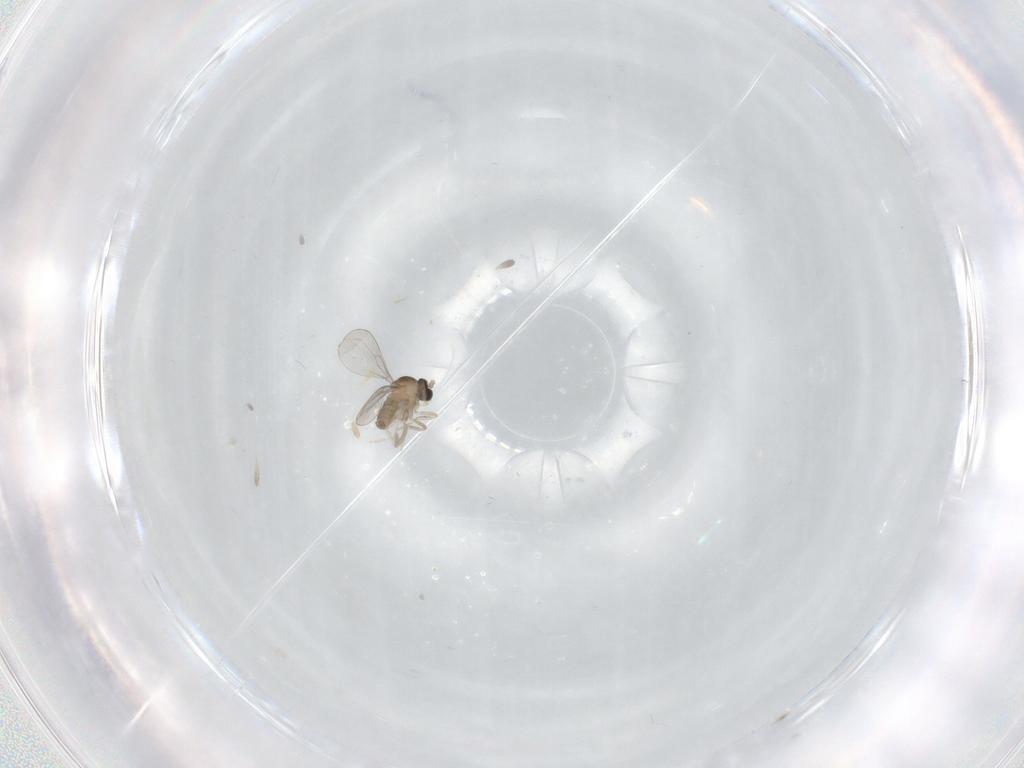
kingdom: Animalia
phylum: Arthropoda
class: Insecta
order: Diptera
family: Cecidomyiidae
